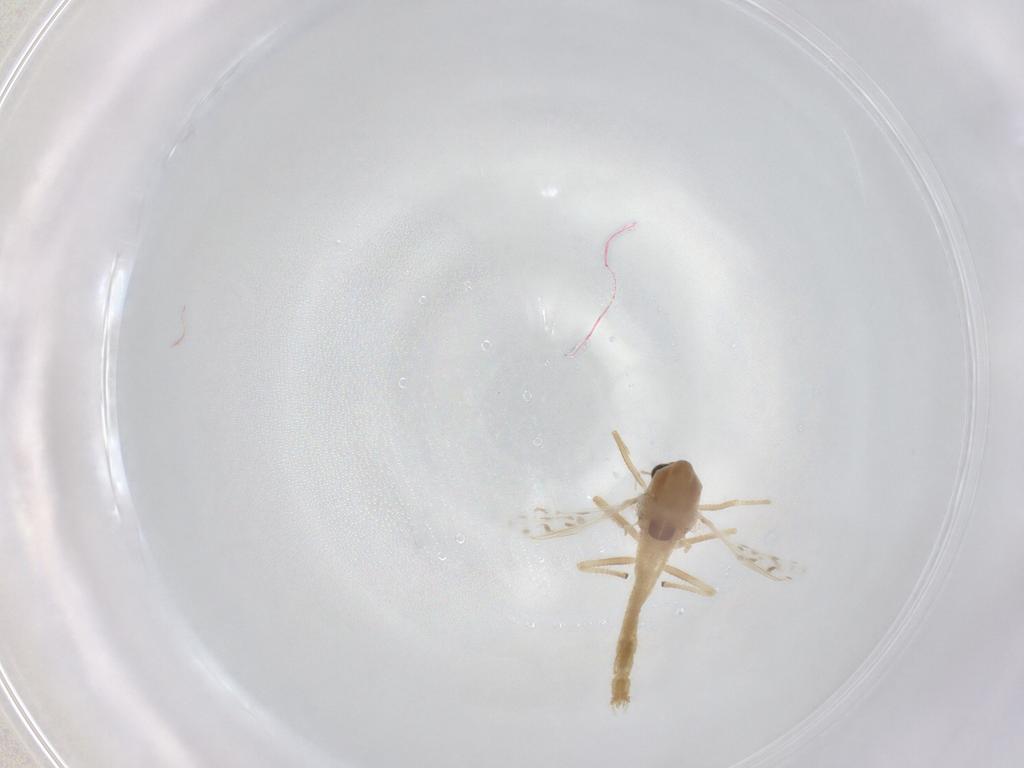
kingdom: Animalia
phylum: Arthropoda
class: Insecta
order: Diptera
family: Chironomidae
